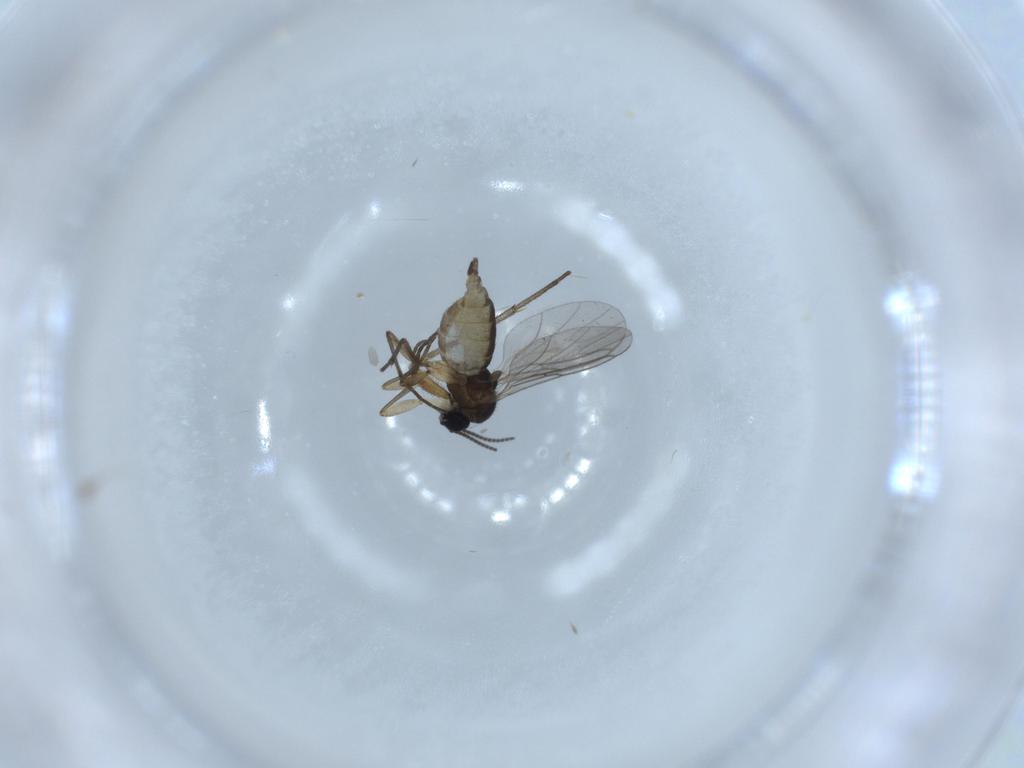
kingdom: Animalia
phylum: Arthropoda
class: Insecta
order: Diptera
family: Sciaridae
